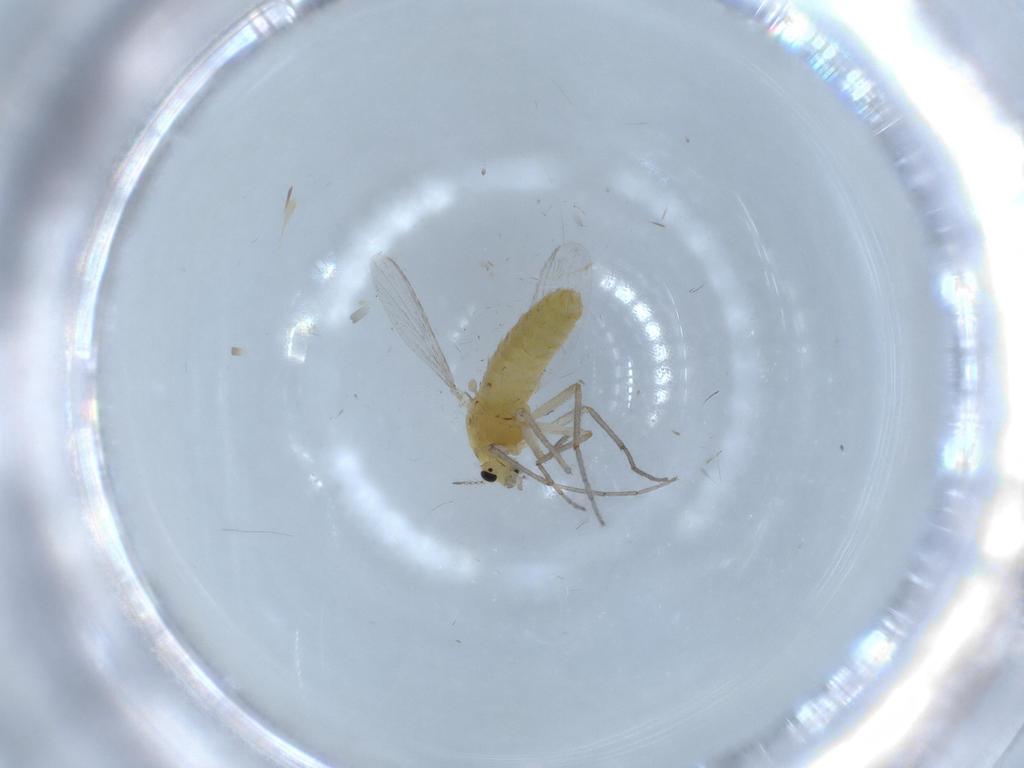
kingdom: Animalia
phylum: Arthropoda
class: Insecta
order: Diptera
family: Chironomidae
